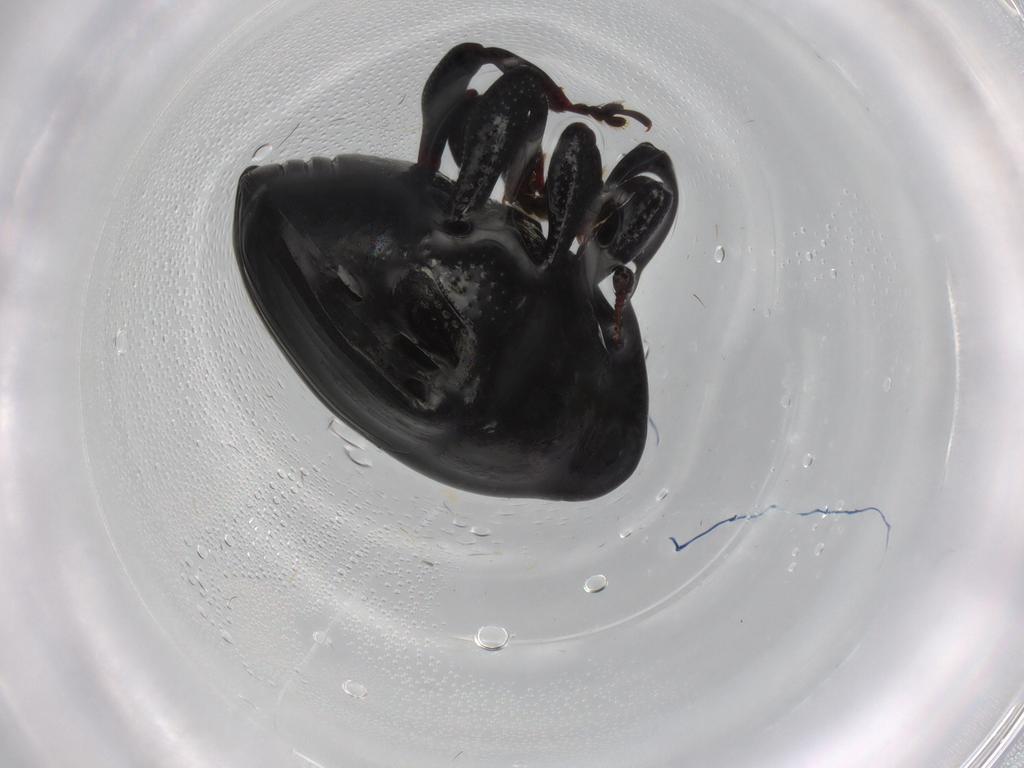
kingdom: Animalia
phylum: Arthropoda
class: Insecta
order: Coleoptera
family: Curculionidae
